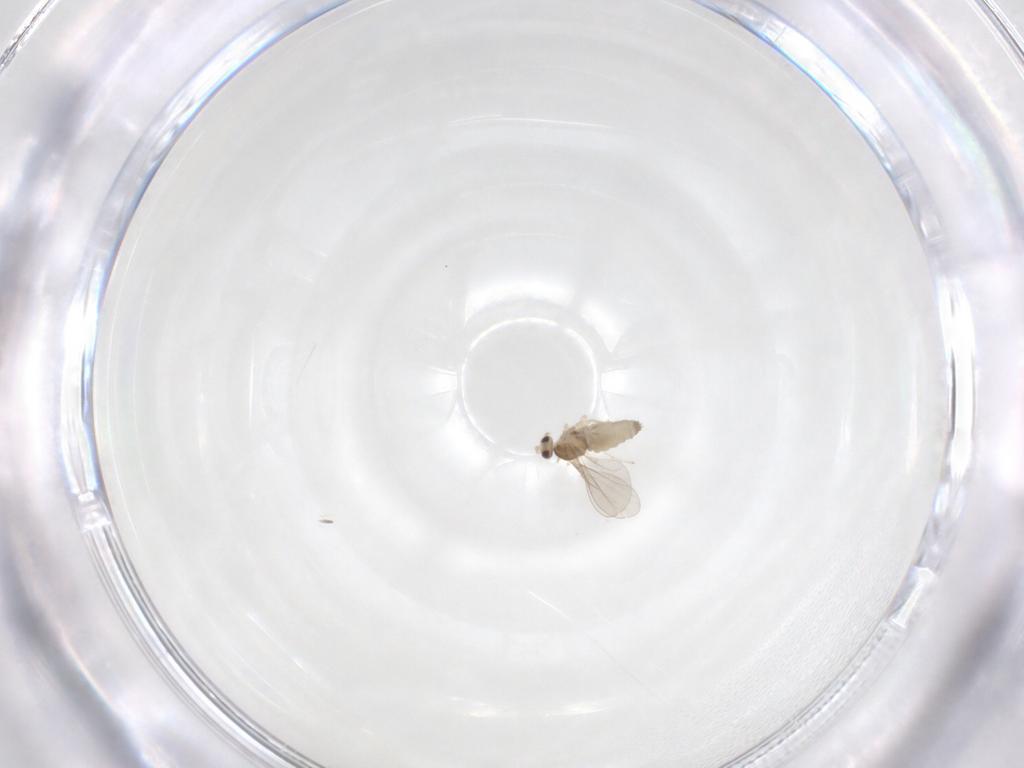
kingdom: Animalia
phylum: Arthropoda
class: Insecta
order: Diptera
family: Cecidomyiidae
